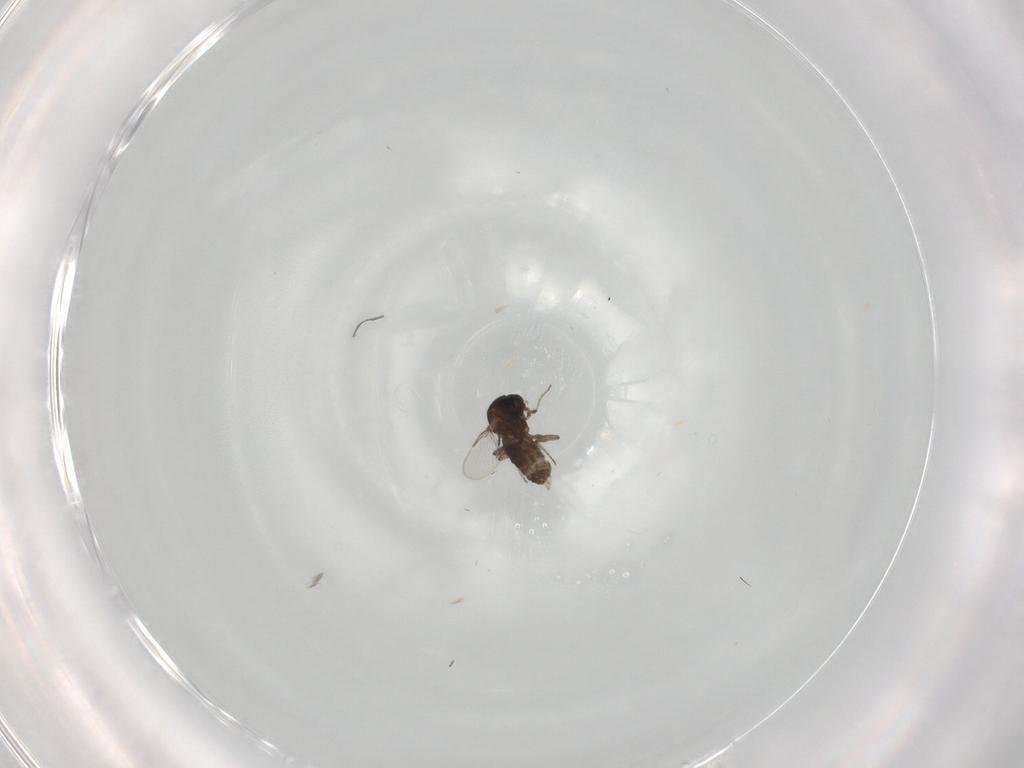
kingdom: Animalia
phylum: Arthropoda
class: Insecta
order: Diptera
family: Ceratopogonidae
